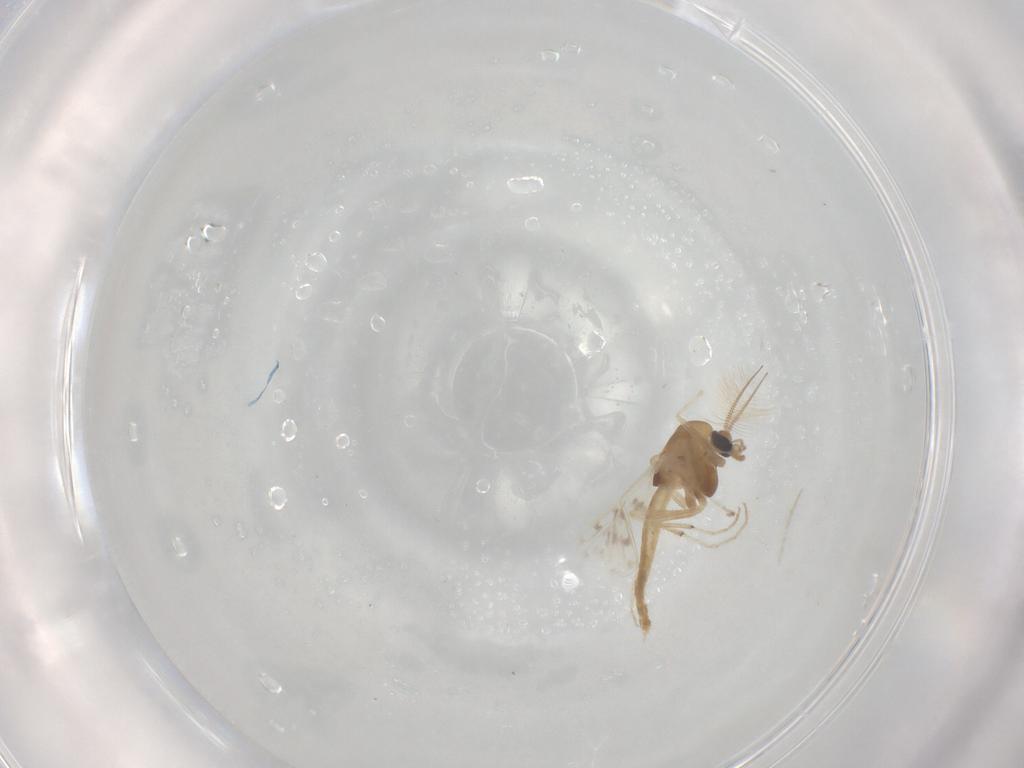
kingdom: Animalia
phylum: Arthropoda
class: Insecta
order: Diptera
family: Chironomidae
